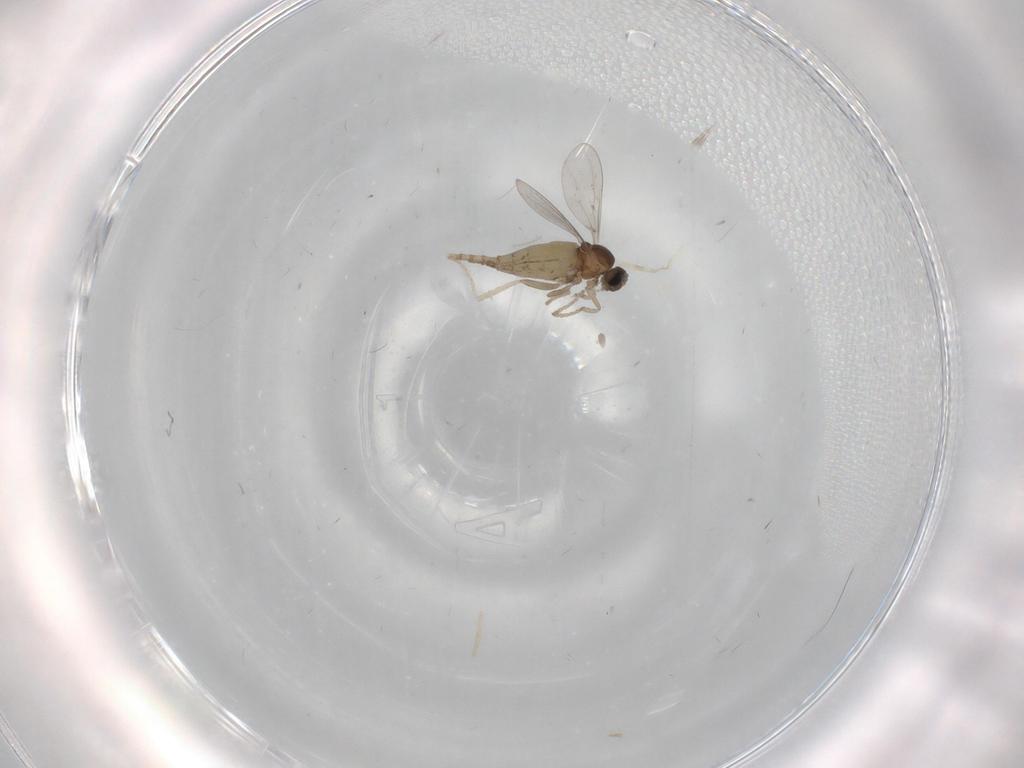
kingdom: Animalia
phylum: Arthropoda
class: Insecta
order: Diptera
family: Cecidomyiidae
